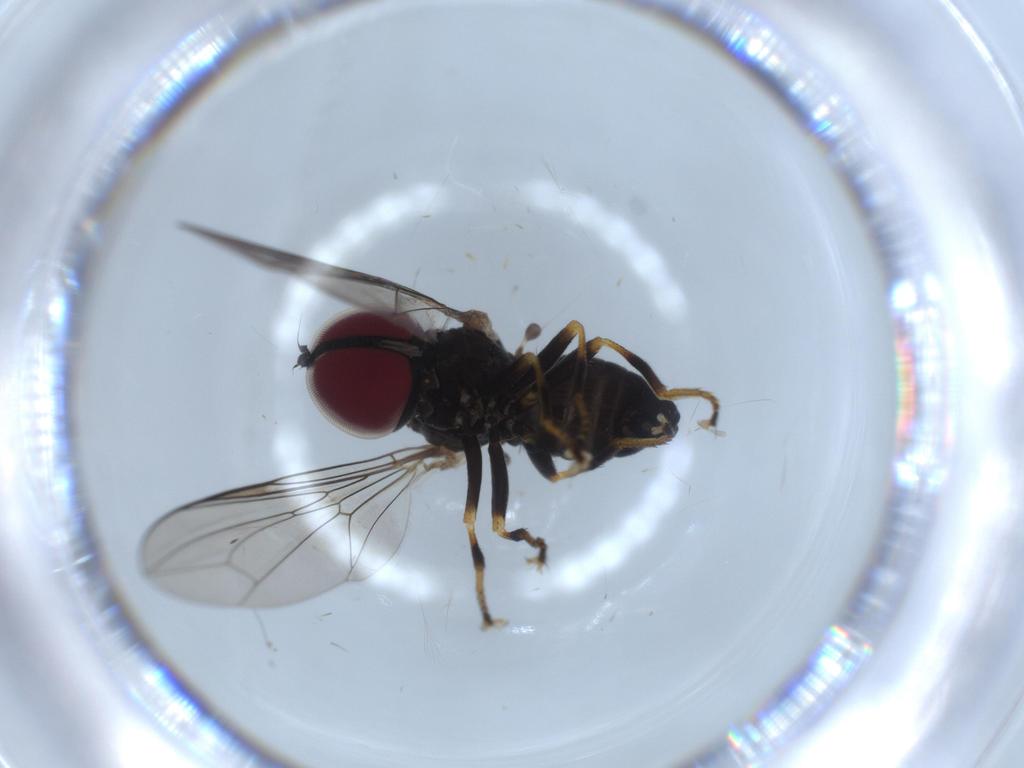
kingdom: Animalia
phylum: Arthropoda
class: Insecta
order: Diptera
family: Pipunculidae
